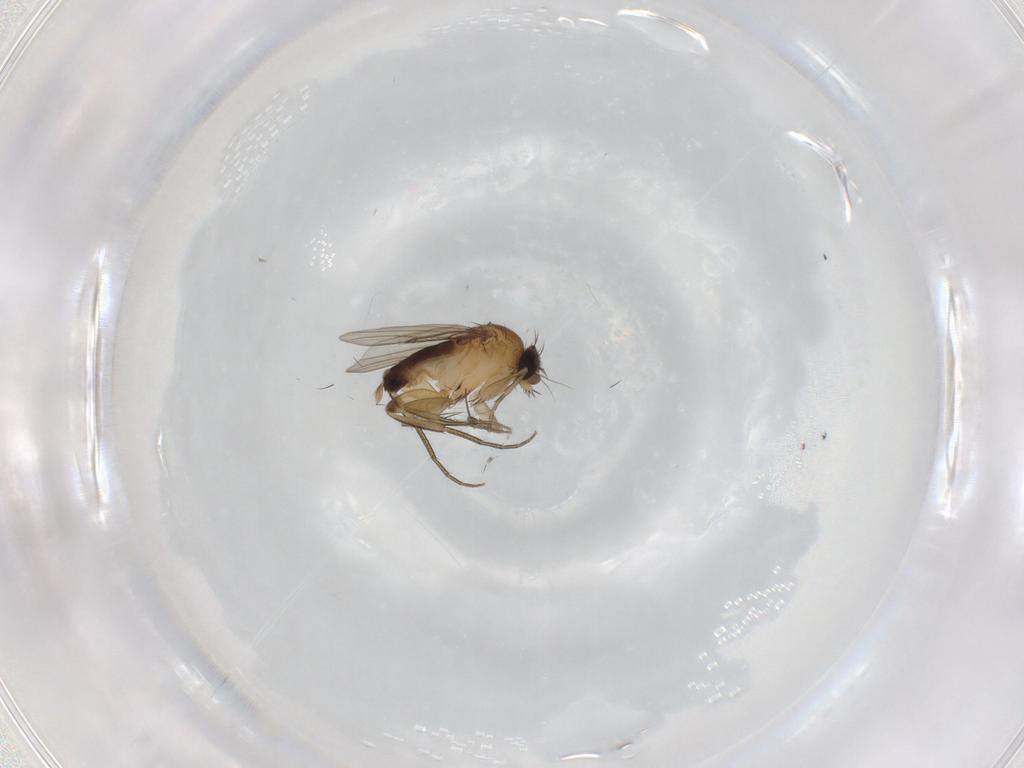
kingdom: Animalia
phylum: Arthropoda
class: Insecta
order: Diptera
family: Phoridae
